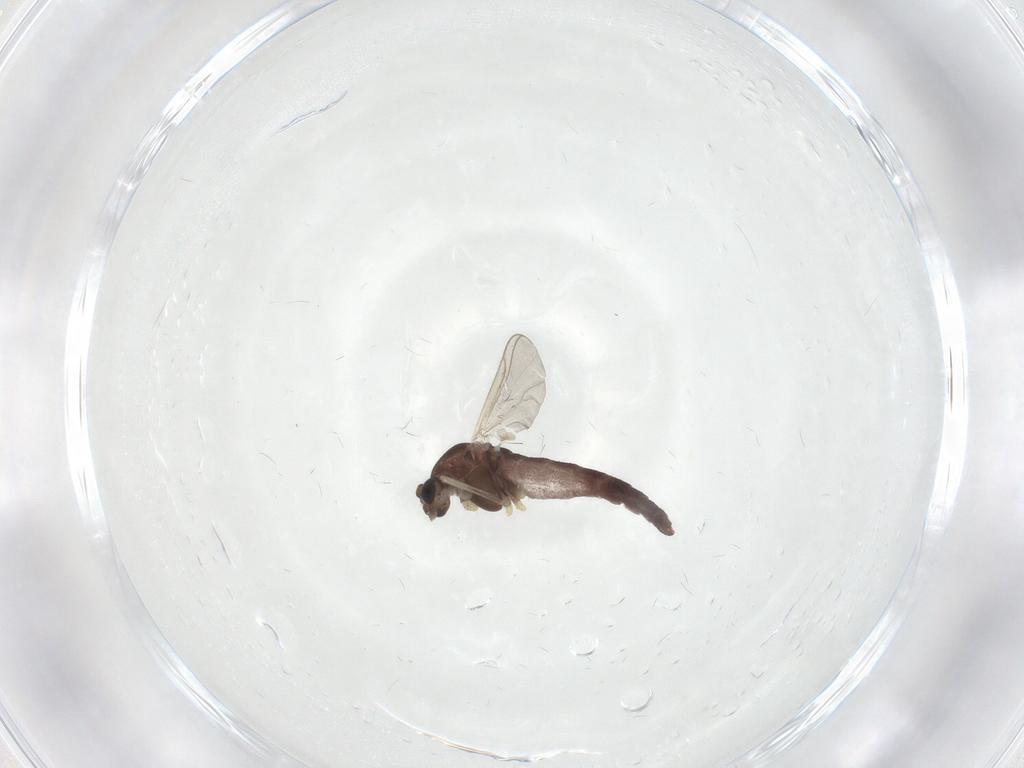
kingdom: Animalia
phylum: Arthropoda
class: Insecta
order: Diptera
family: Chironomidae
